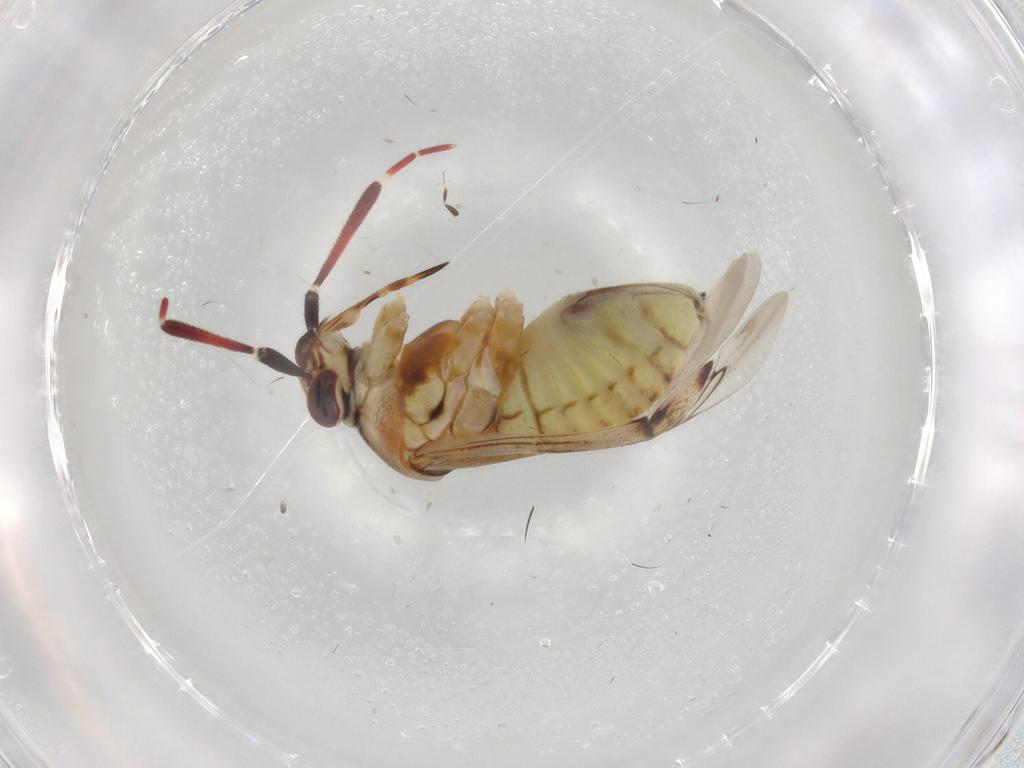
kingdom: Animalia
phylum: Arthropoda
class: Insecta
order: Hemiptera
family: Miridae
